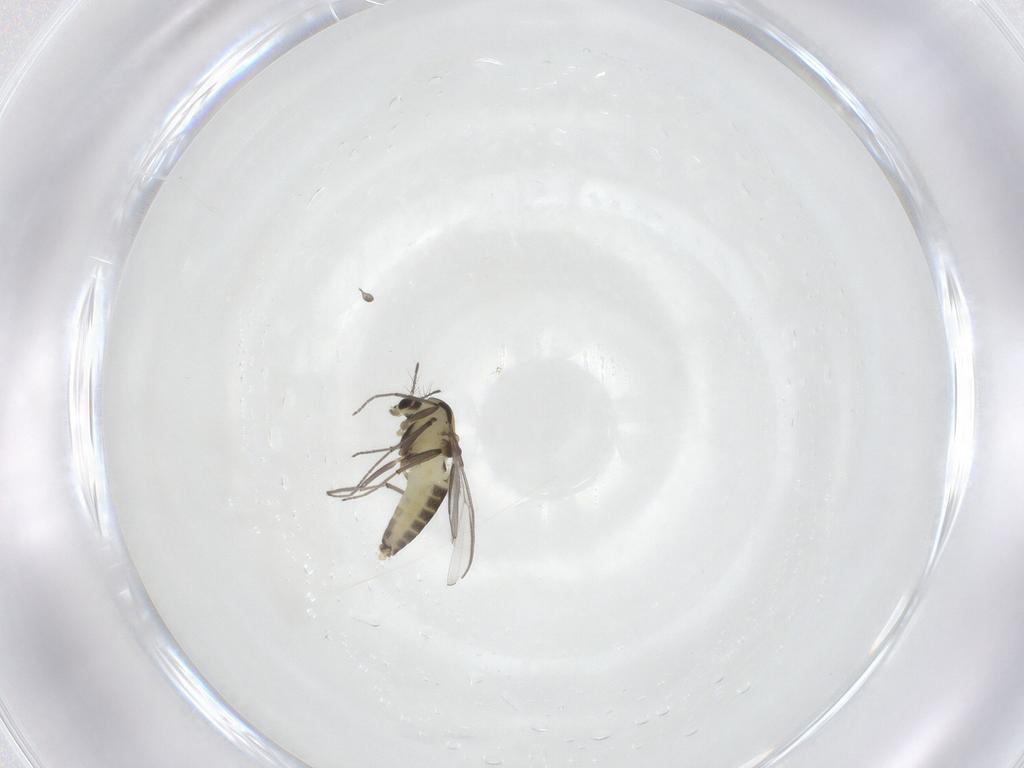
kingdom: Animalia
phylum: Arthropoda
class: Insecta
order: Diptera
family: Chironomidae
